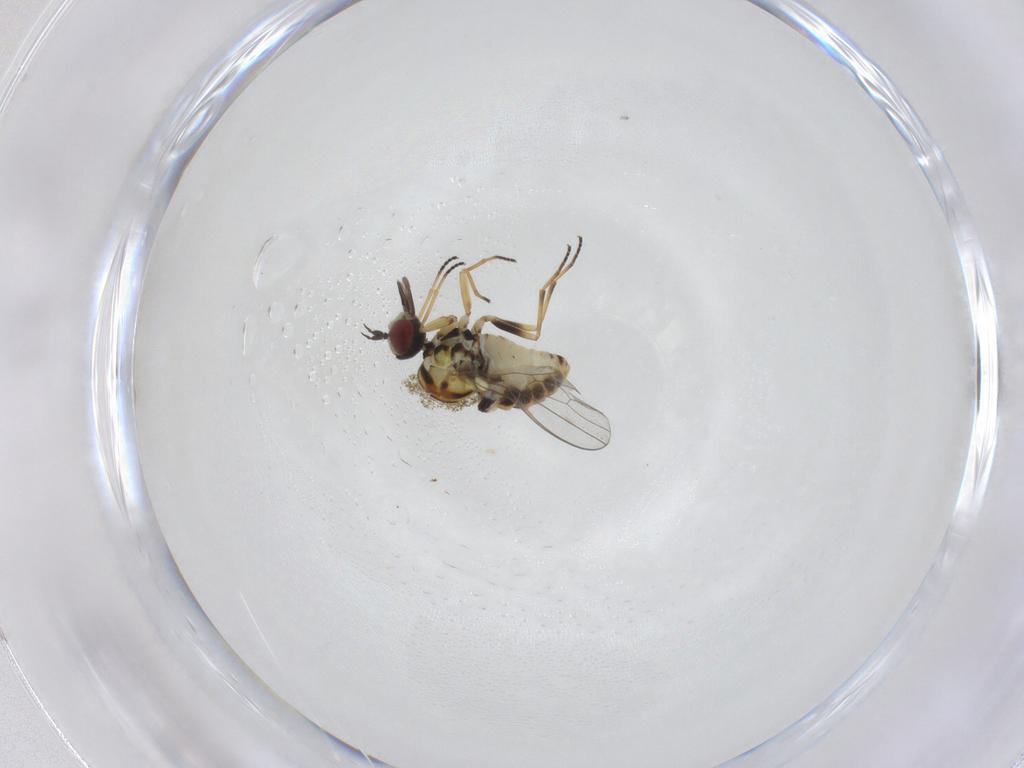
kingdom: Animalia
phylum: Arthropoda
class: Insecta
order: Diptera
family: Bombyliidae
